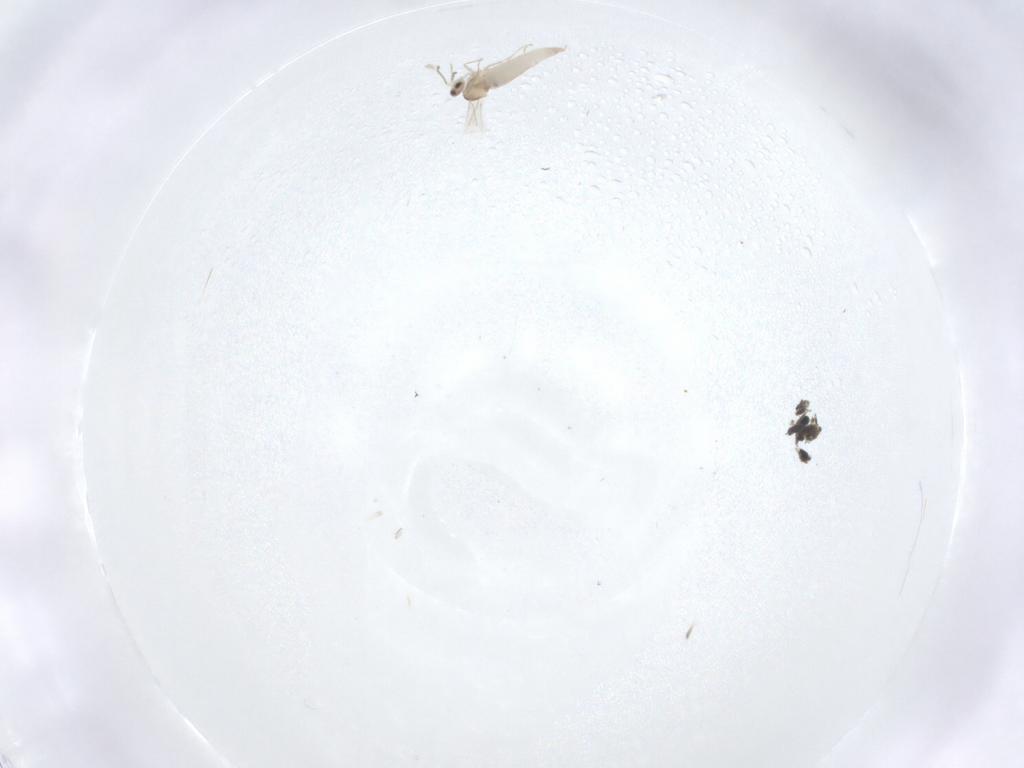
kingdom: Animalia
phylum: Arthropoda
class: Insecta
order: Diptera
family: Cecidomyiidae
